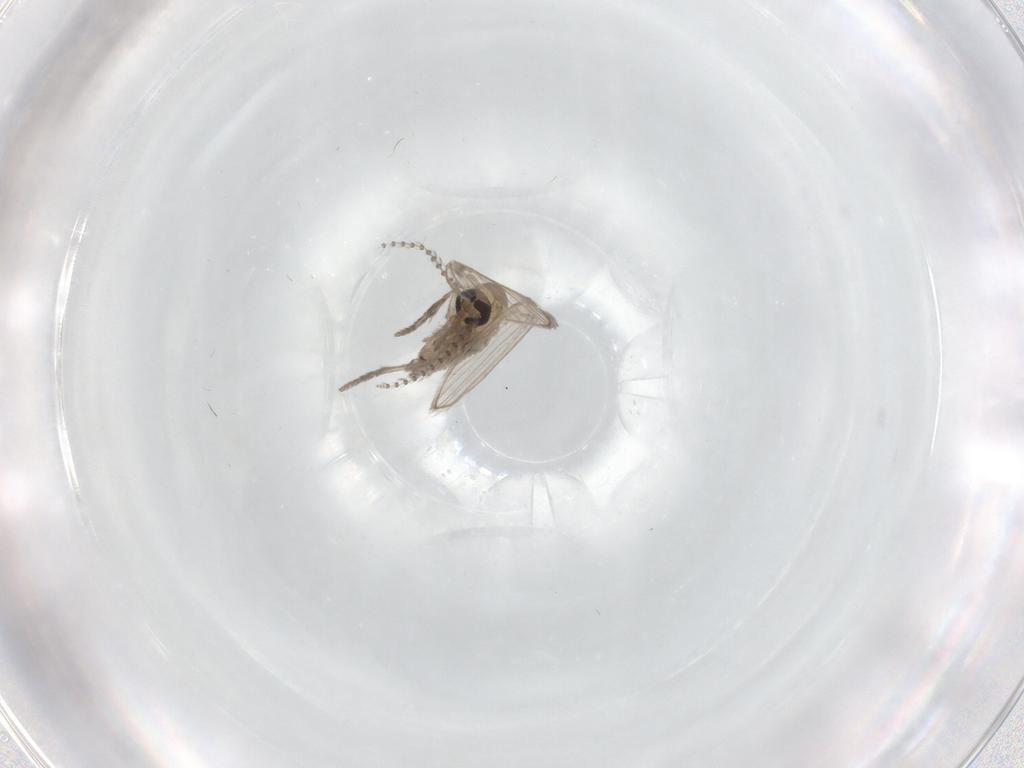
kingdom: Animalia
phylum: Arthropoda
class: Insecta
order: Diptera
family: Psychodidae
